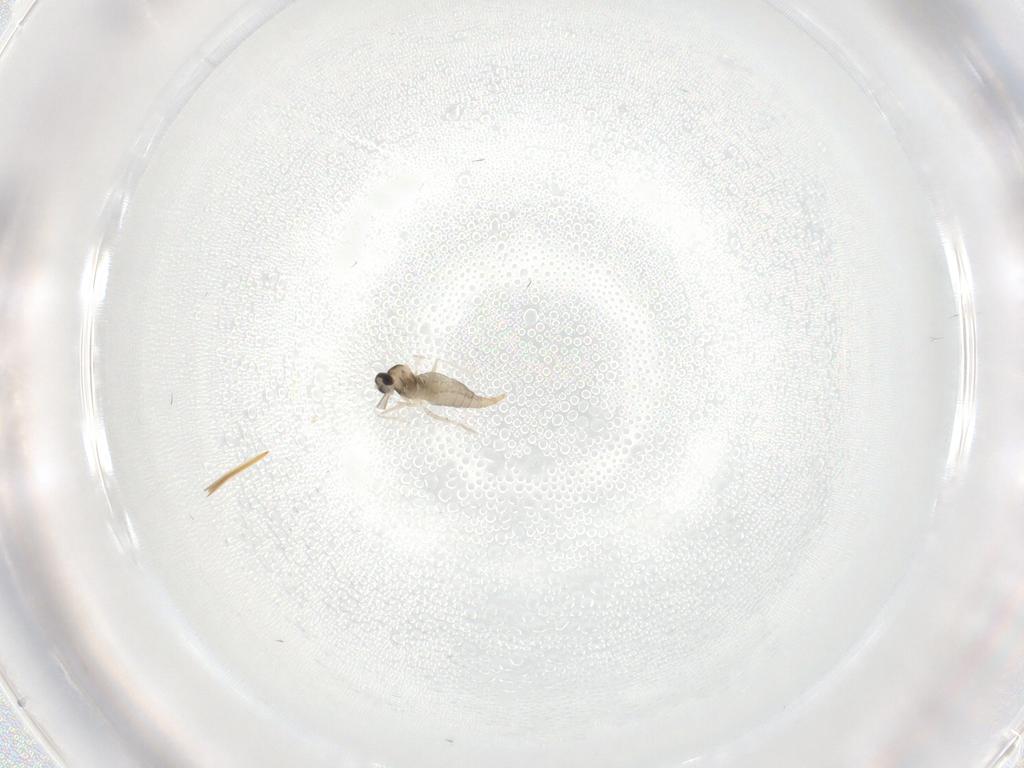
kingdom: Animalia
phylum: Arthropoda
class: Insecta
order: Diptera
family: Cecidomyiidae
